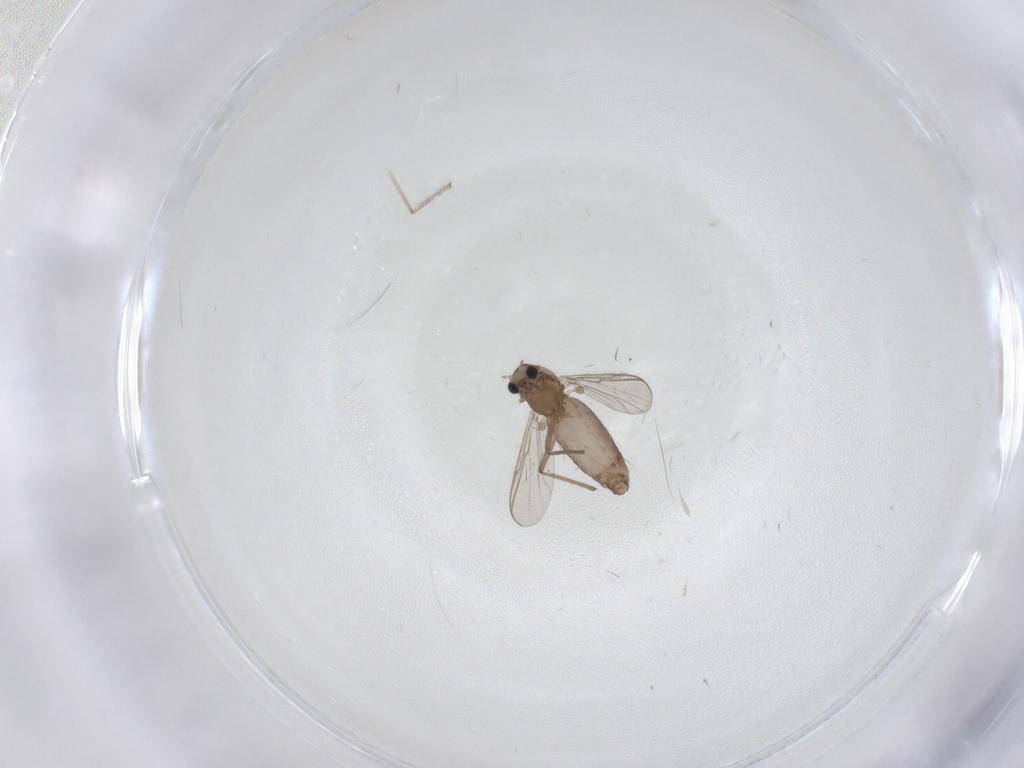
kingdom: Animalia
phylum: Arthropoda
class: Insecta
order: Diptera
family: Chironomidae
